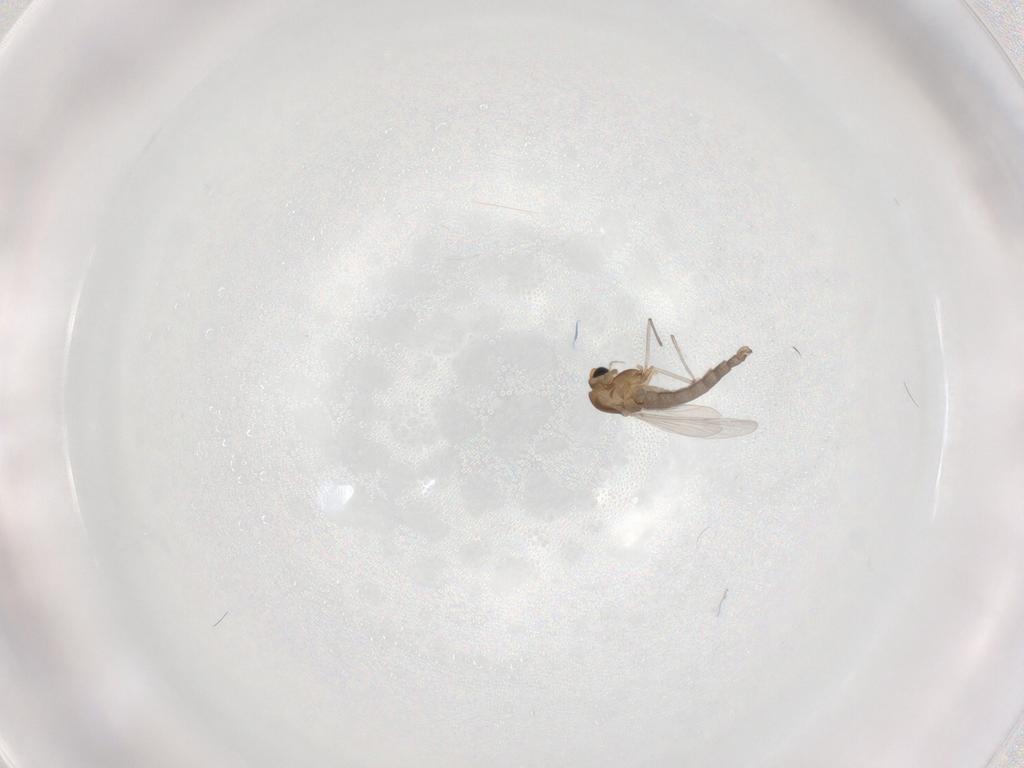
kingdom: Animalia
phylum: Arthropoda
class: Insecta
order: Diptera
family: Chironomidae
